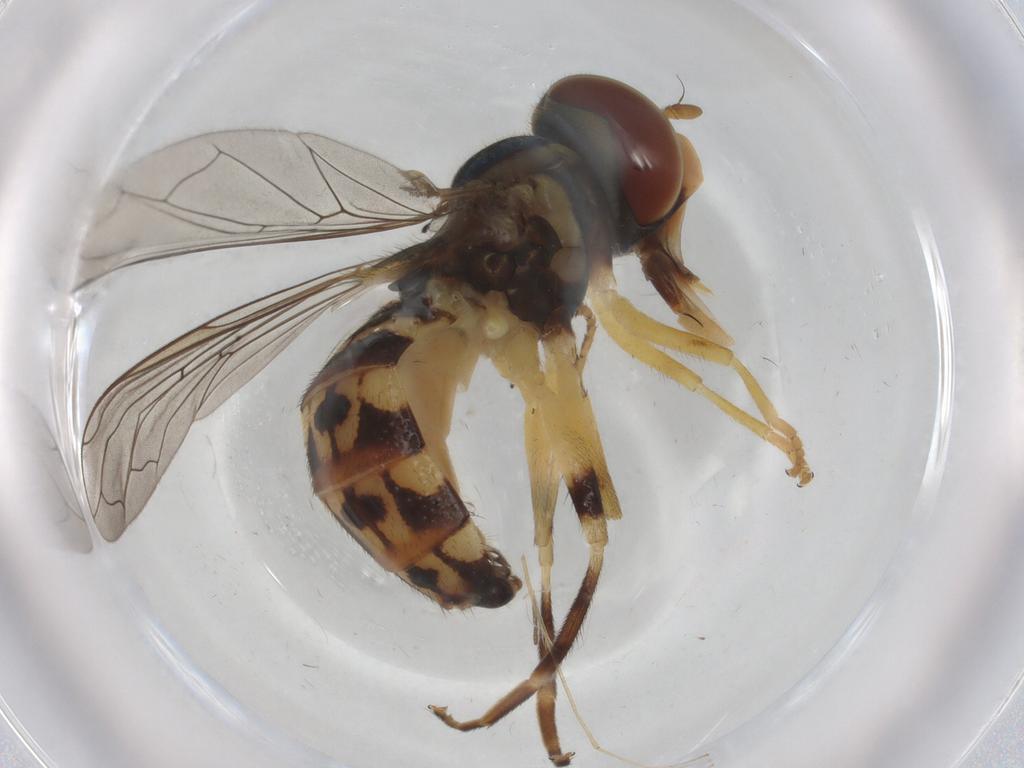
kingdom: Animalia
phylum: Arthropoda
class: Insecta
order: Diptera
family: Syrphidae
